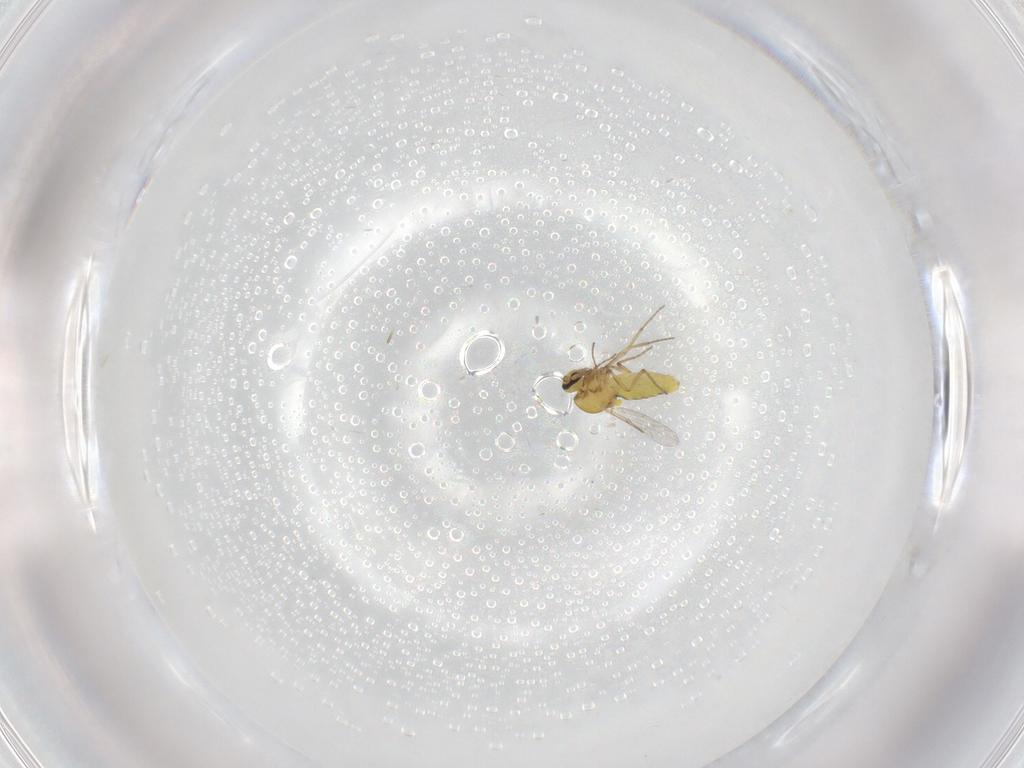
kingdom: Animalia
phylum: Arthropoda
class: Insecta
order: Diptera
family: Ceratopogonidae
